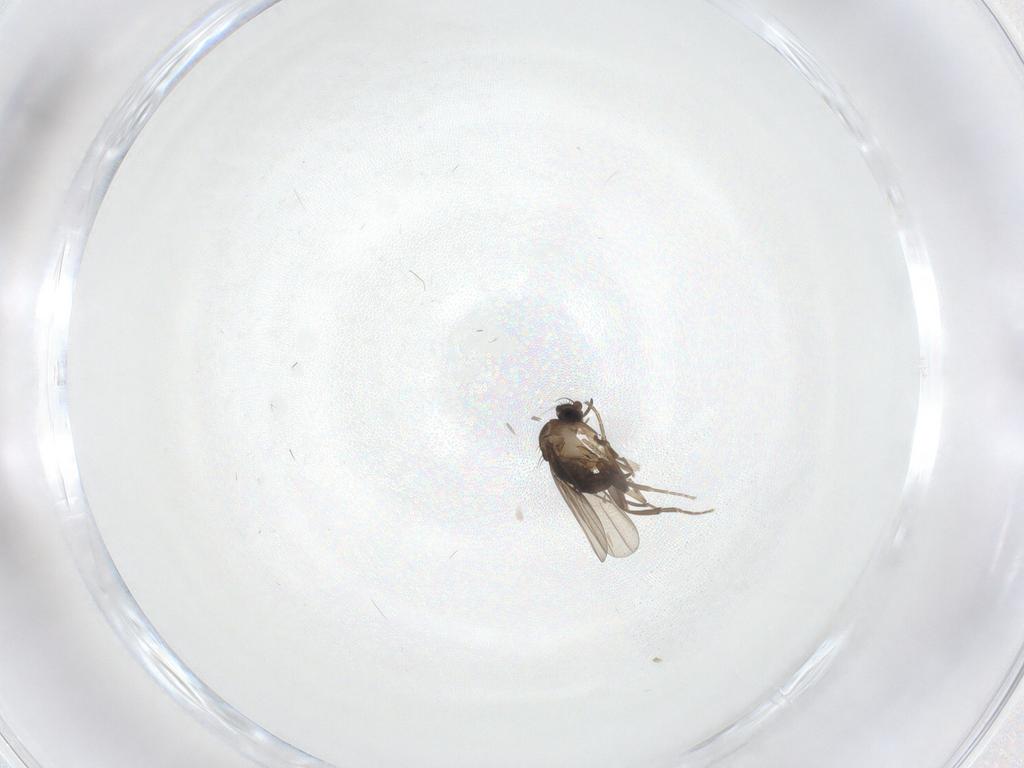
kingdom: Animalia
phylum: Arthropoda
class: Insecta
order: Diptera
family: Phoridae
